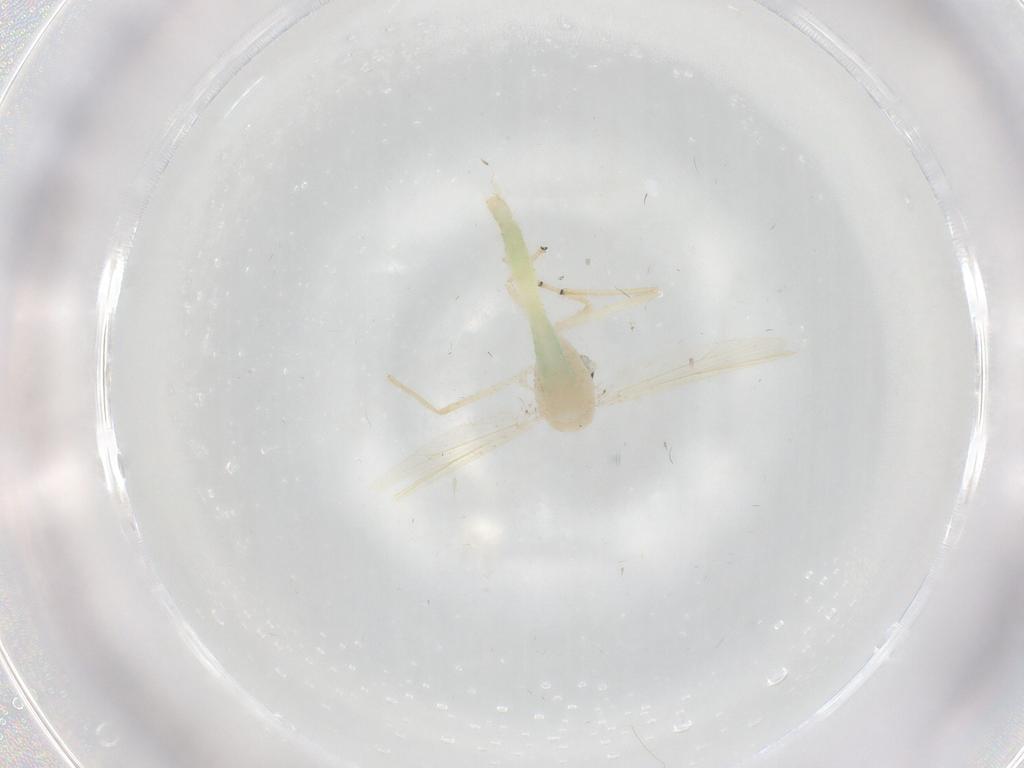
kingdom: Animalia
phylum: Arthropoda
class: Insecta
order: Diptera
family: Chironomidae
